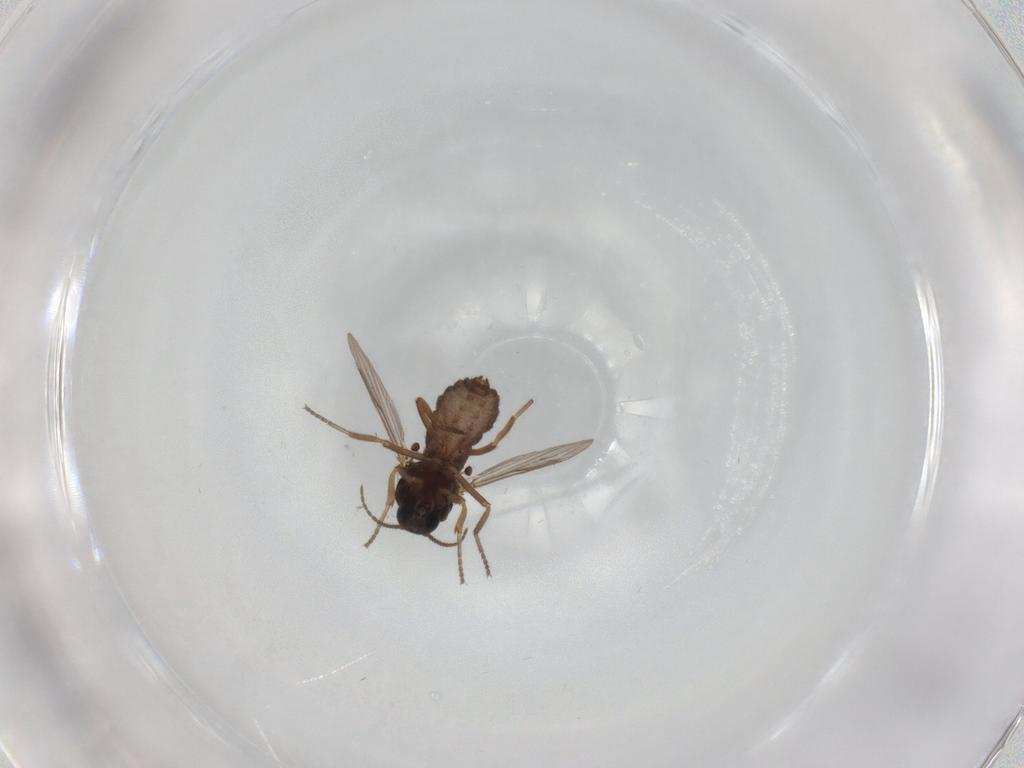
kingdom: Animalia
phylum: Arthropoda
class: Insecta
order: Diptera
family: Ceratopogonidae
